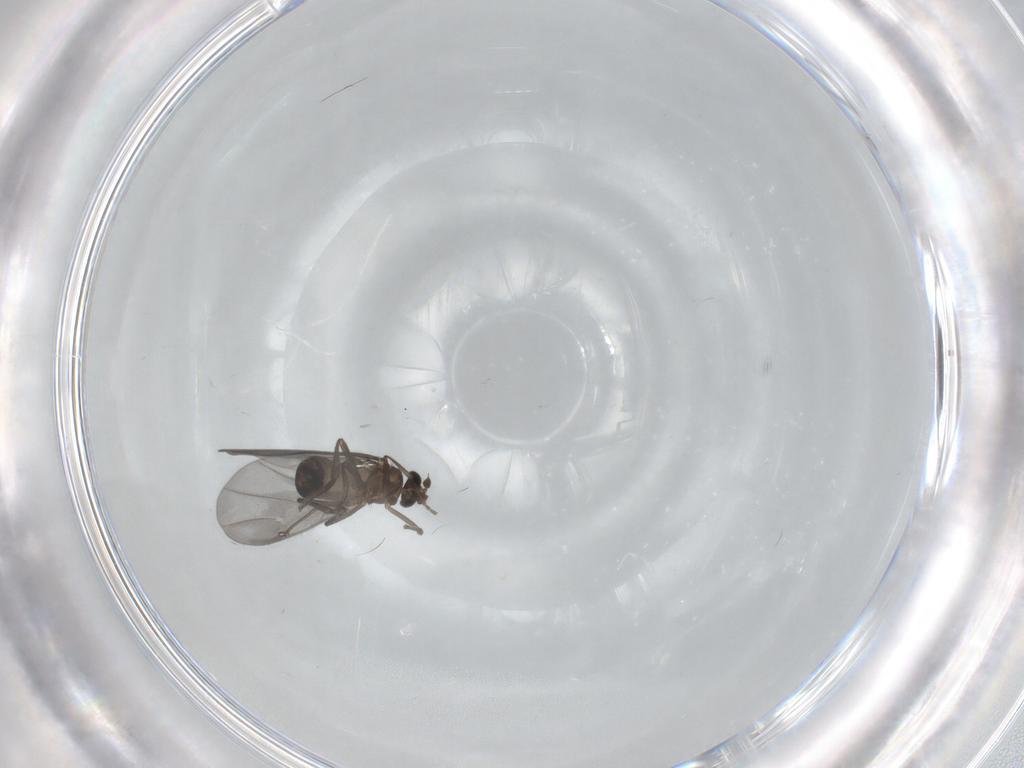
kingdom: Animalia
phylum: Arthropoda
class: Insecta
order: Diptera
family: Phoridae
